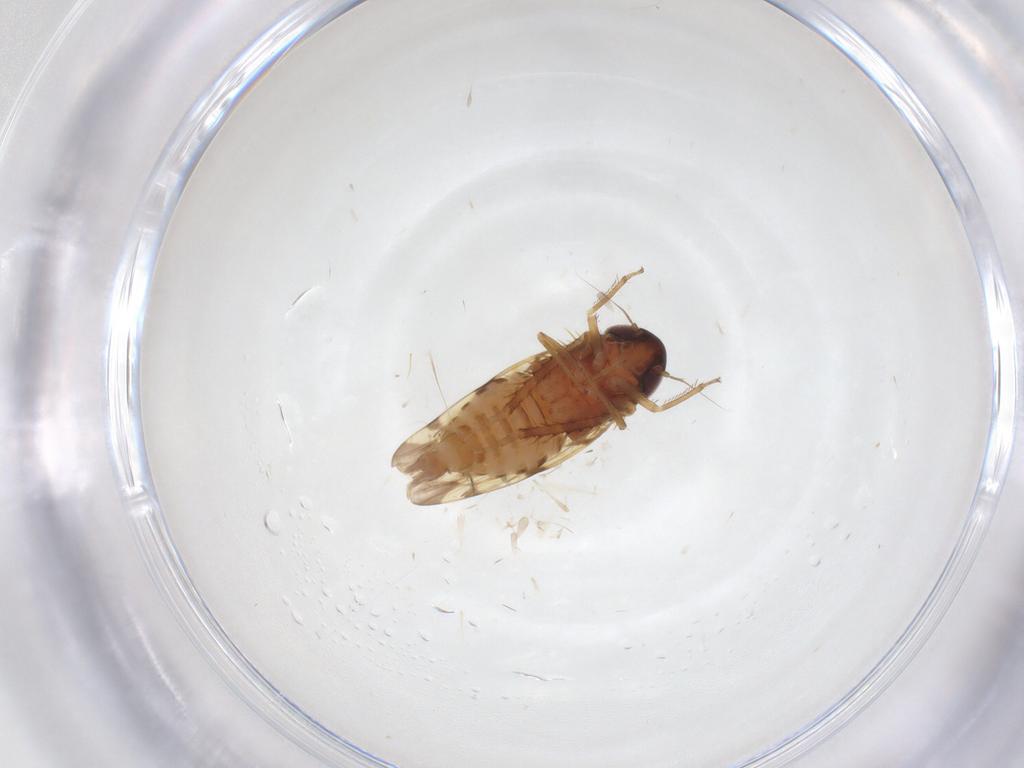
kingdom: Animalia
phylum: Arthropoda
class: Insecta
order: Hemiptera
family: Cicadellidae
